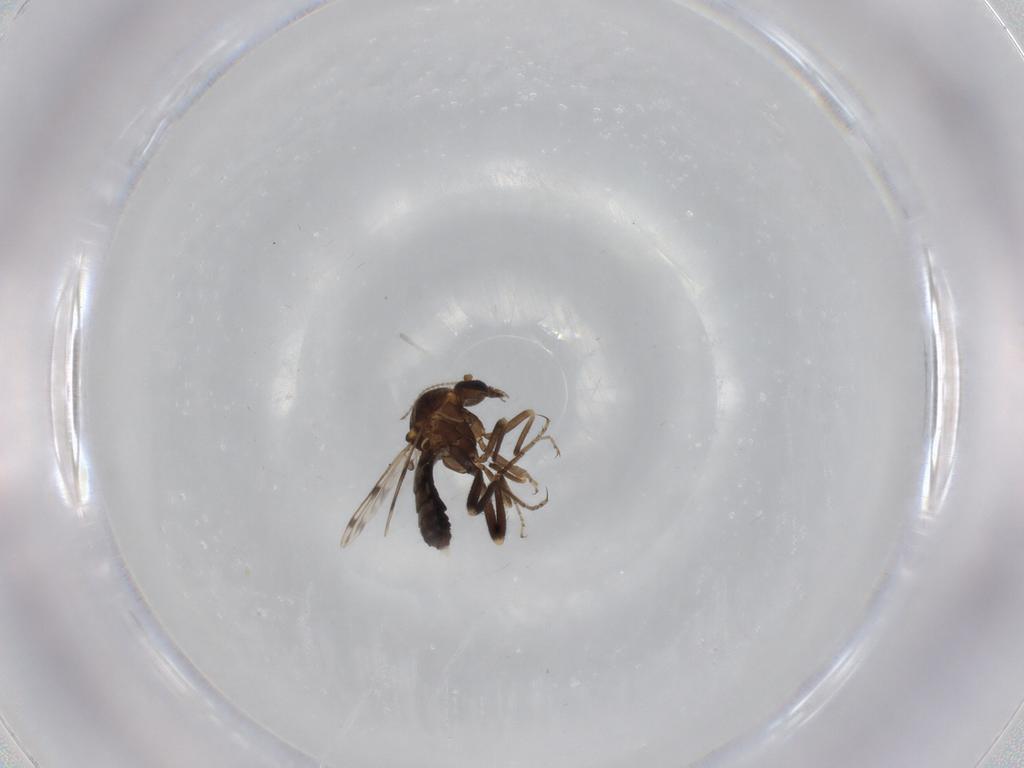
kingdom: Animalia
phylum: Arthropoda
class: Insecta
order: Diptera
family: Ceratopogonidae
